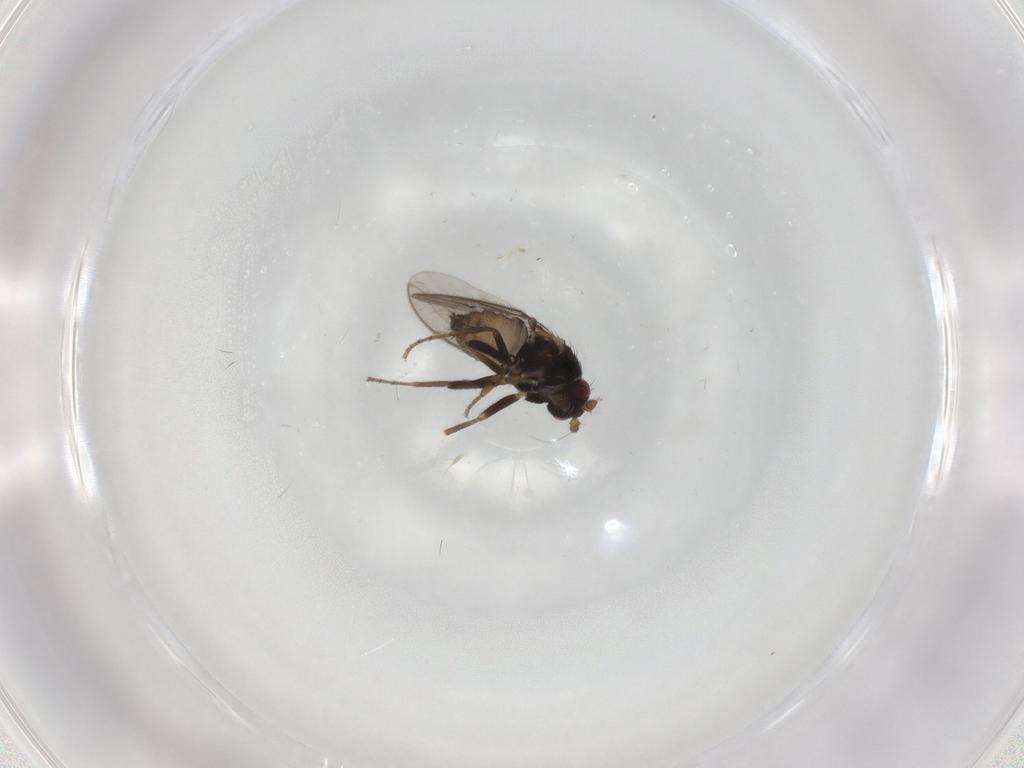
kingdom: Animalia
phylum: Arthropoda
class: Insecta
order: Diptera
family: Sphaeroceridae
